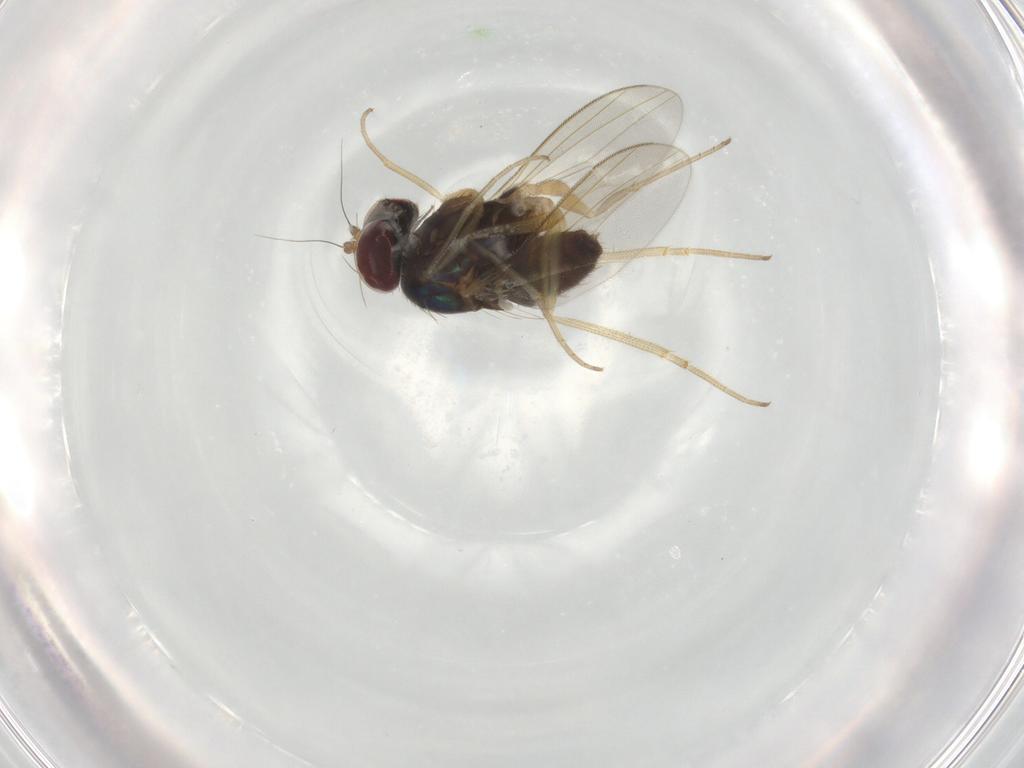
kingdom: Animalia
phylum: Arthropoda
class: Insecta
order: Diptera
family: Dolichopodidae
